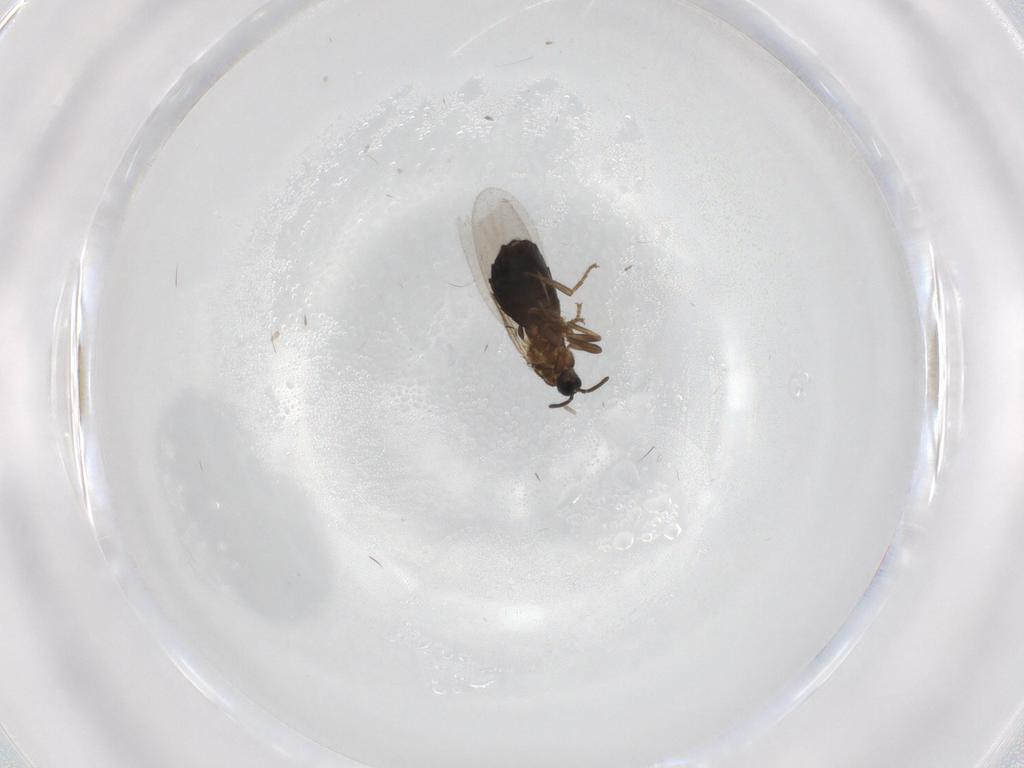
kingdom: Animalia
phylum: Arthropoda
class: Insecta
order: Diptera
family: Scatopsidae
